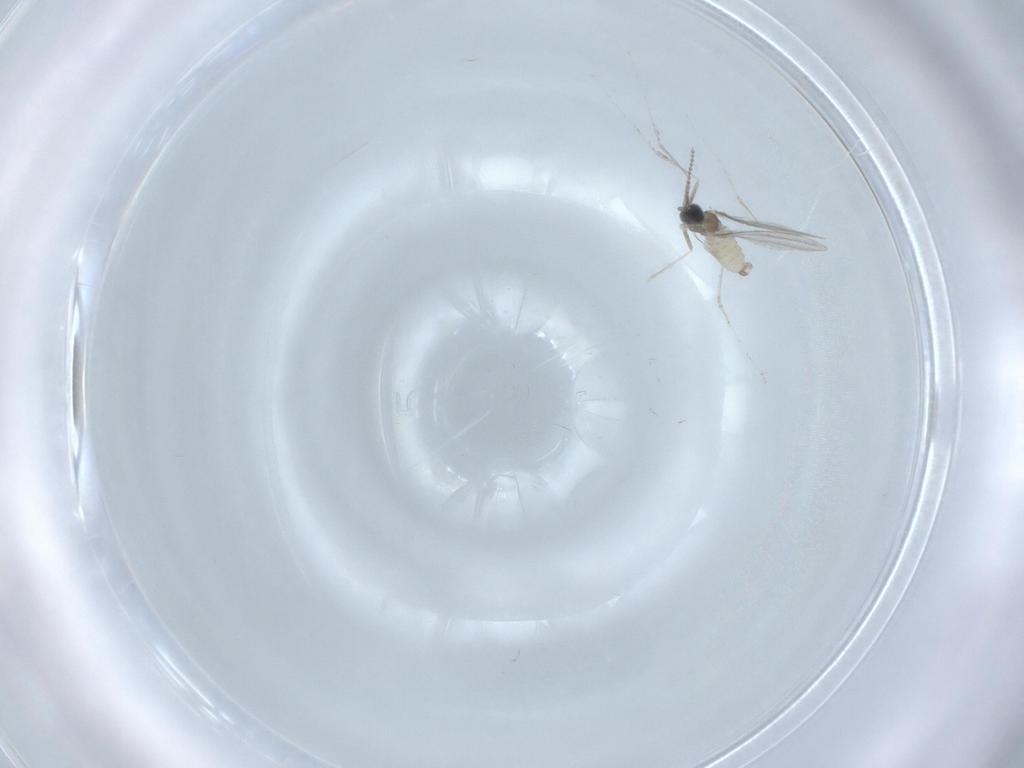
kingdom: Animalia
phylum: Arthropoda
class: Insecta
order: Diptera
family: Cecidomyiidae
